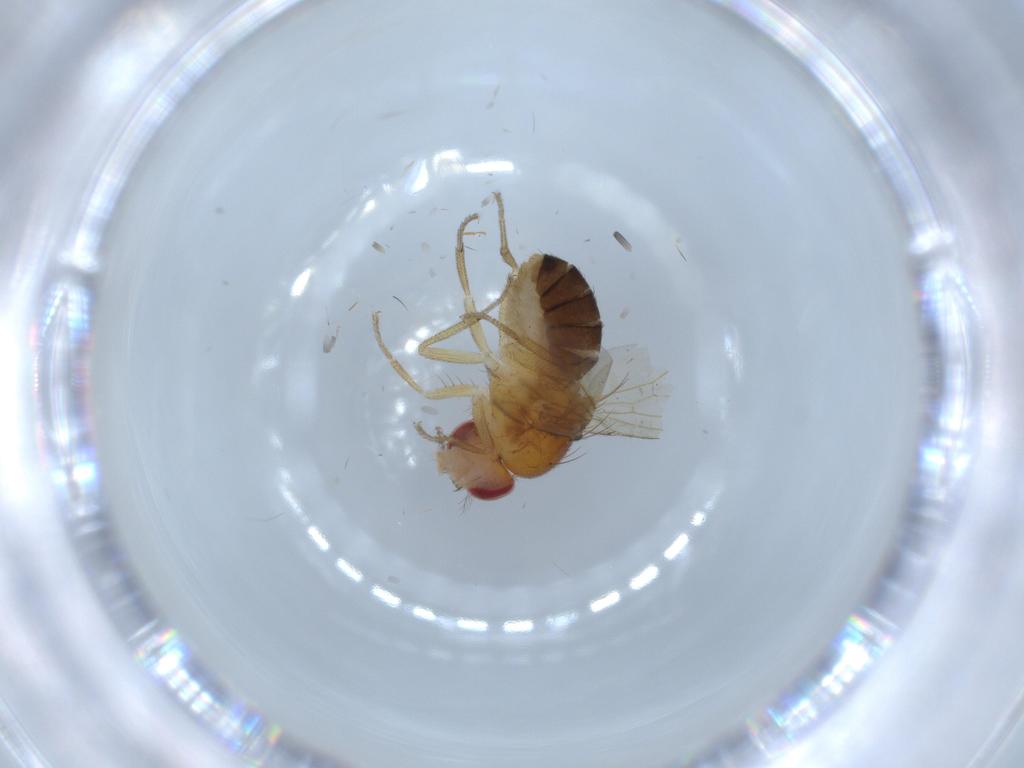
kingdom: Animalia
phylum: Arthropoda
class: Insecta
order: Diptera
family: Drosophilidae
